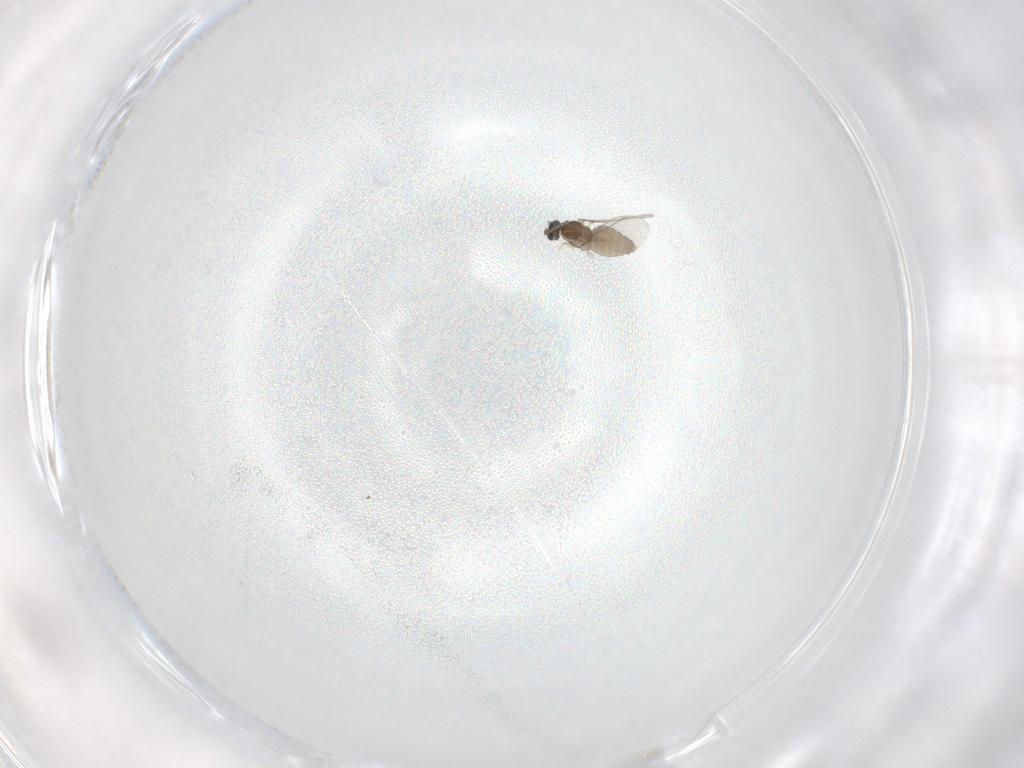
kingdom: Animalia
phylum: Arthropoda
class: Insecta
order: Diptera
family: Cecidomyiidae
